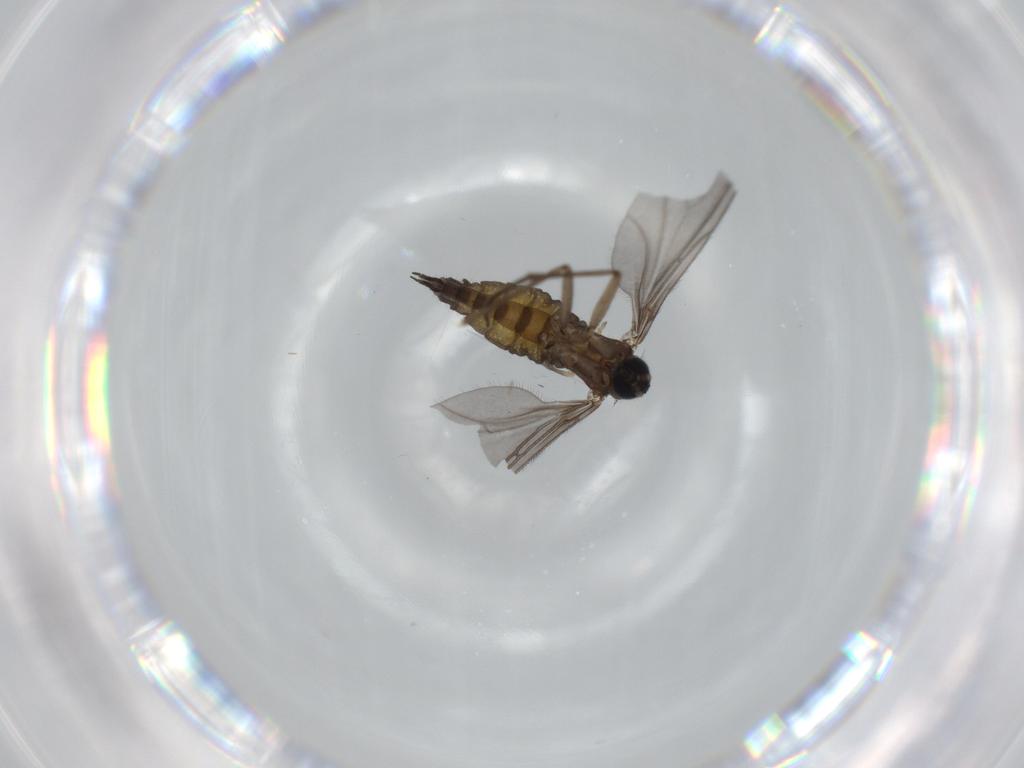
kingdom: Animalia
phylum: Arthropoda
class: Insecta
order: Diptera
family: Sciaridae
